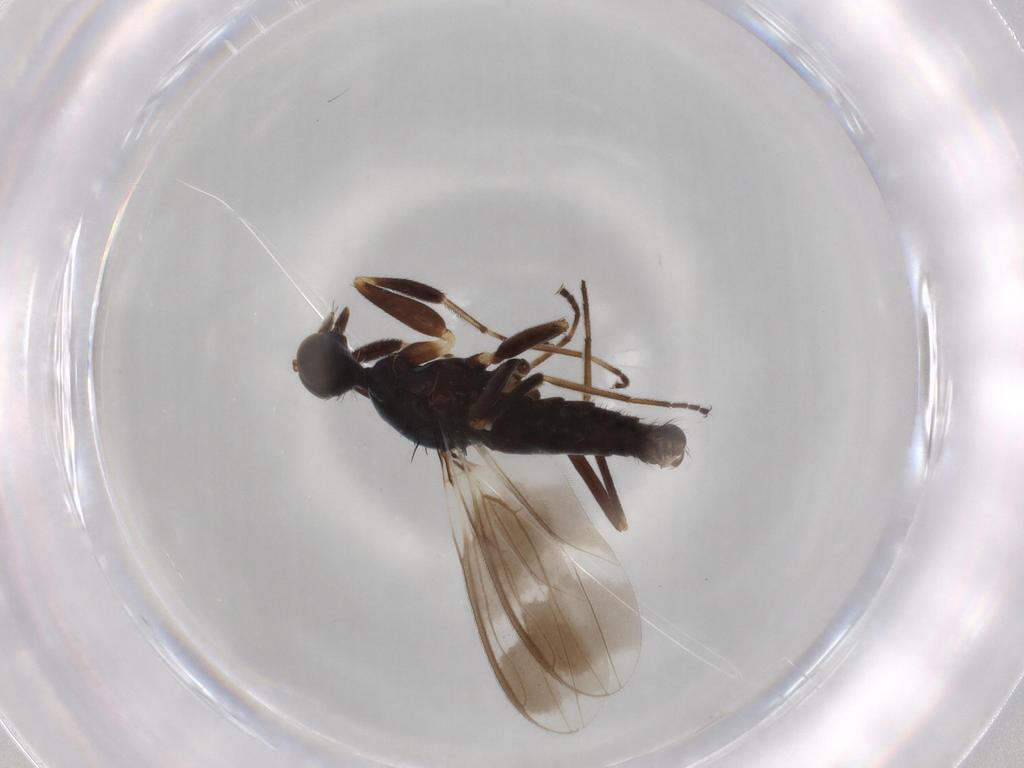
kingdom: Animalia
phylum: Arthropoda
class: Insecta
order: Diptera
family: Hybotidae
